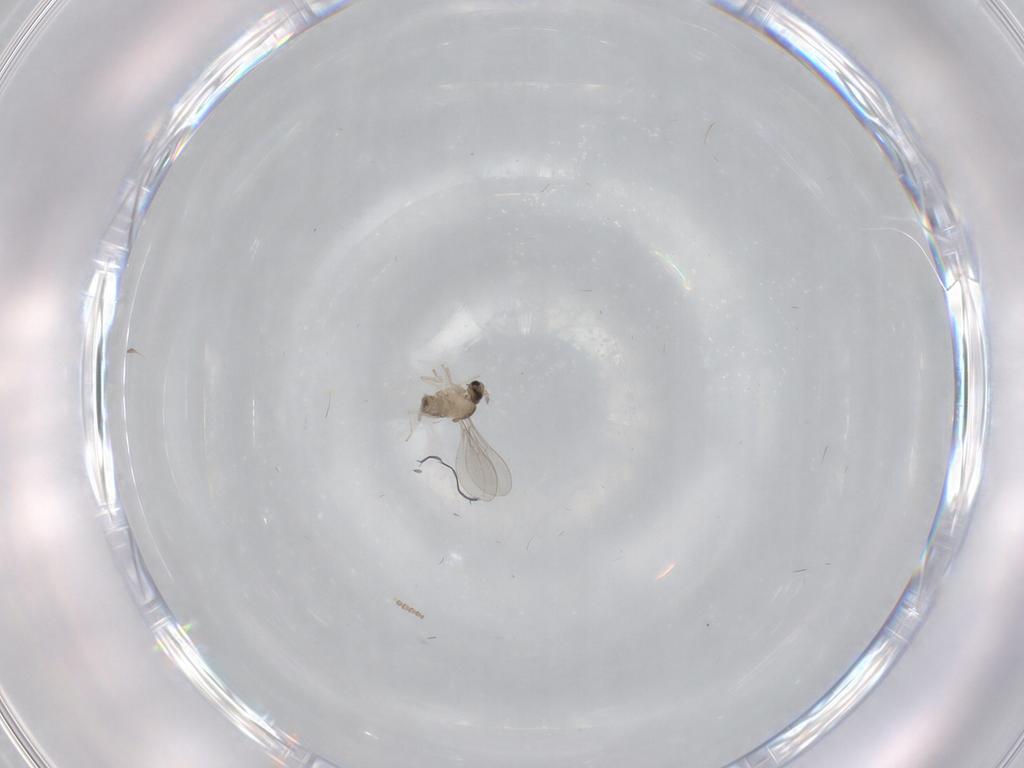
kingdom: Animalia
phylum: Arthropoda
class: Insecta
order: Diptera
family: Cecidomyiidae
